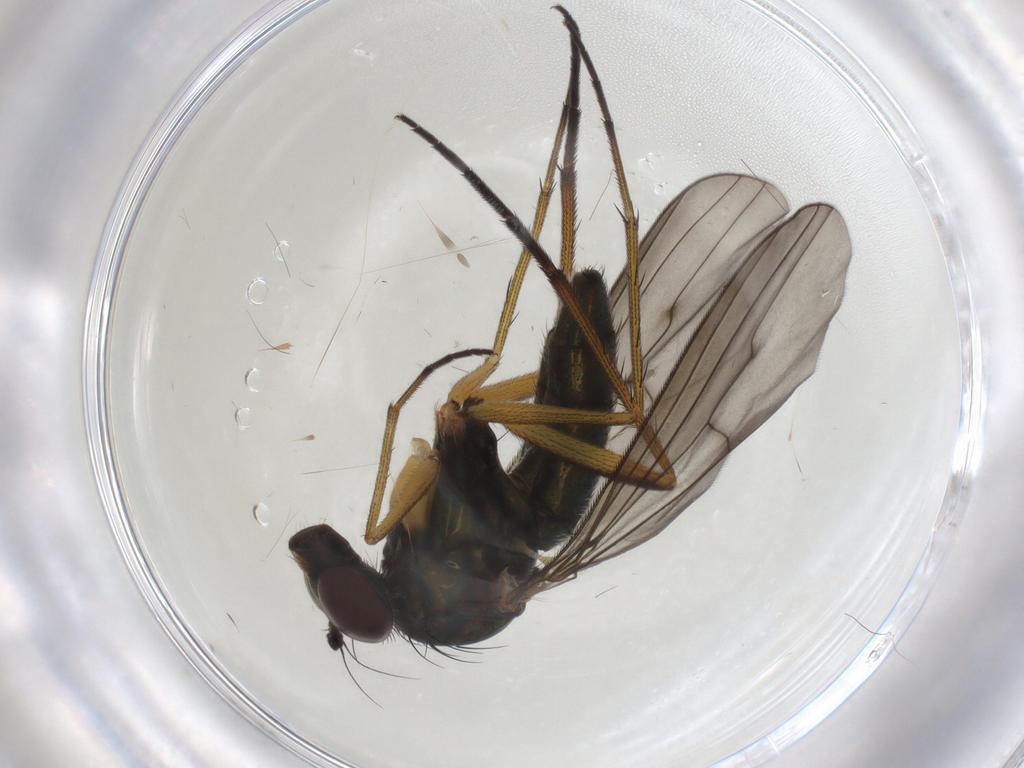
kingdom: Animalia
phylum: Arthropoda
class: Insecta
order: Diptera
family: Dolichopodidae
